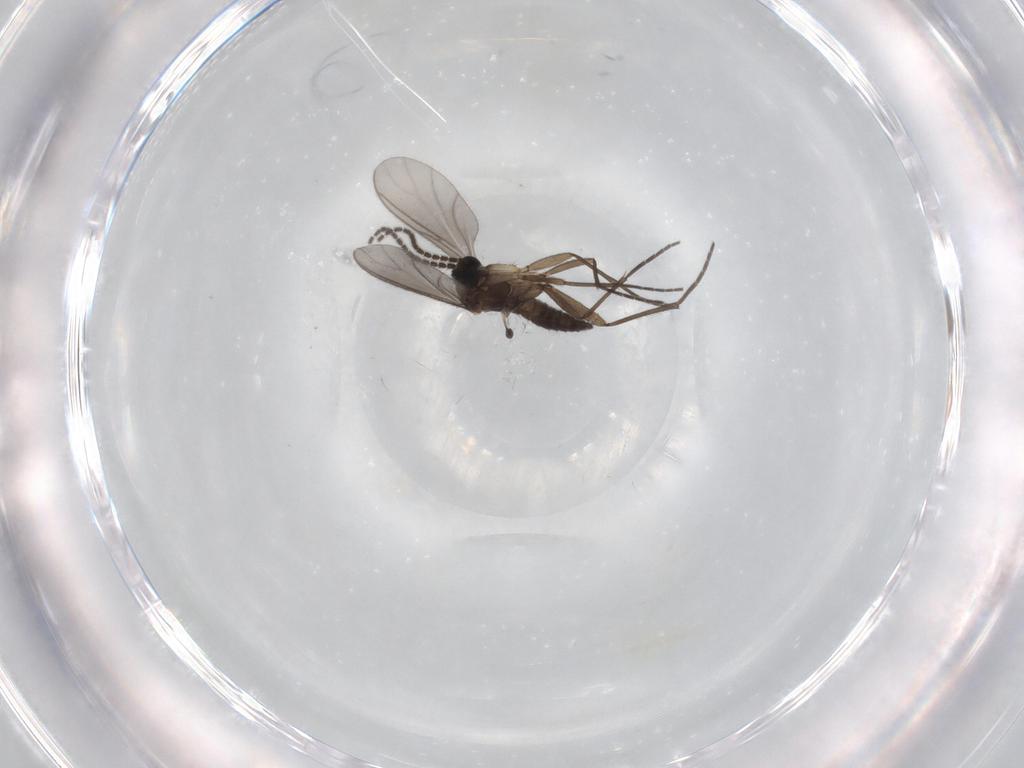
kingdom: Animalia
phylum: Arthropoda
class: Insecta
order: Diptera
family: Sciaridae
